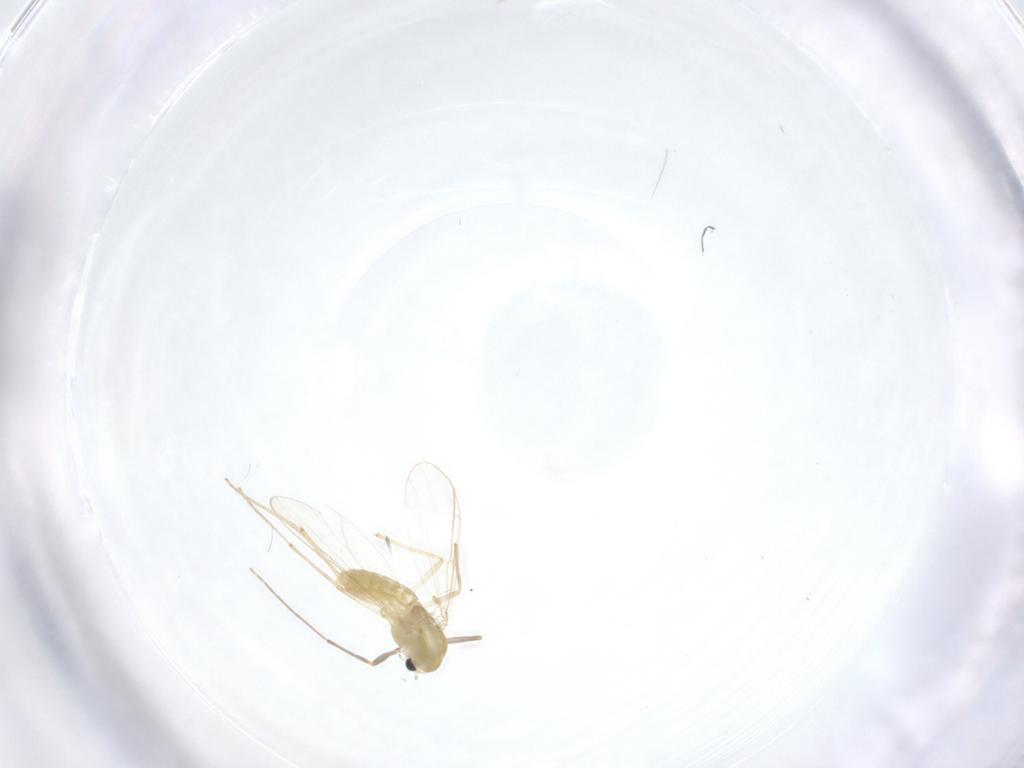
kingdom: Animalia
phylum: Arthropoda
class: Insecta
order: Diptera
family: Chironomidae
